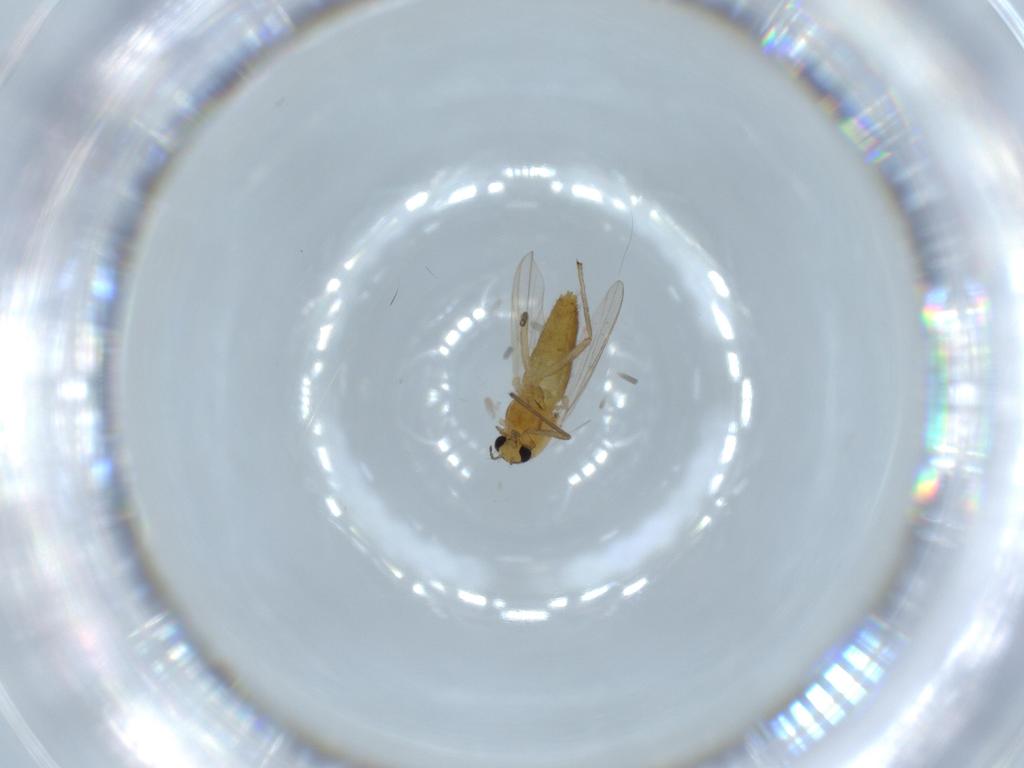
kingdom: Animalia
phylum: Arthropoda
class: Insecta
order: Diptera
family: Chironomidae
